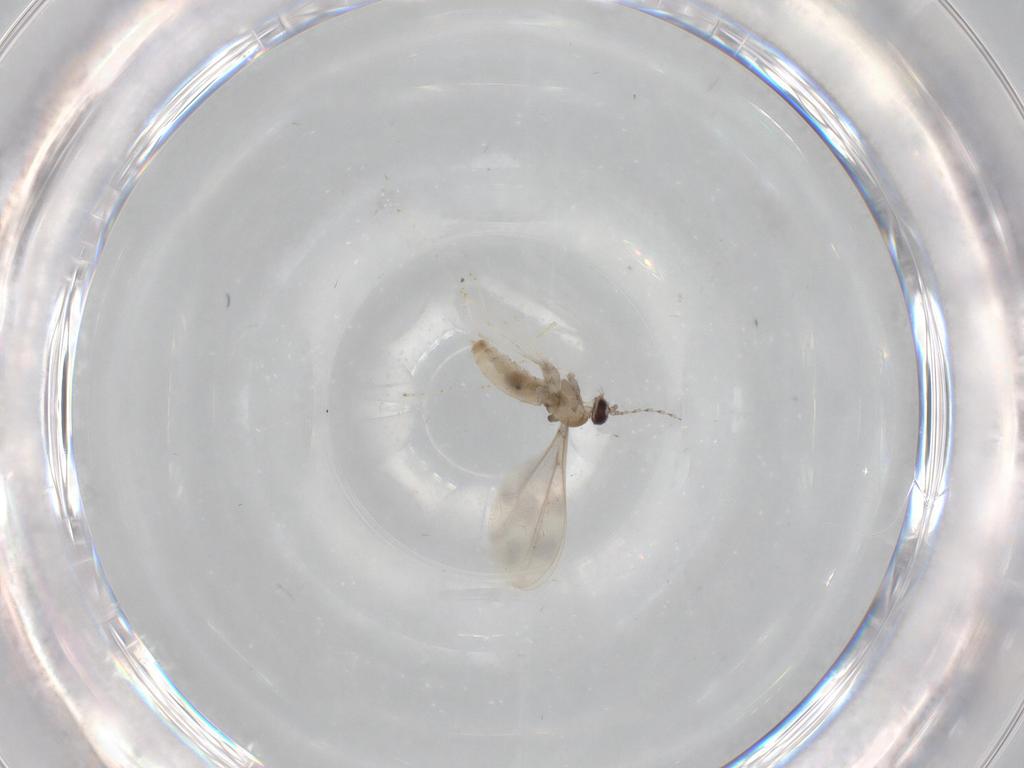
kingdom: Animalia
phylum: Arthropoda
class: Insecta
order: Diptera
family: Cecidomyiidae
